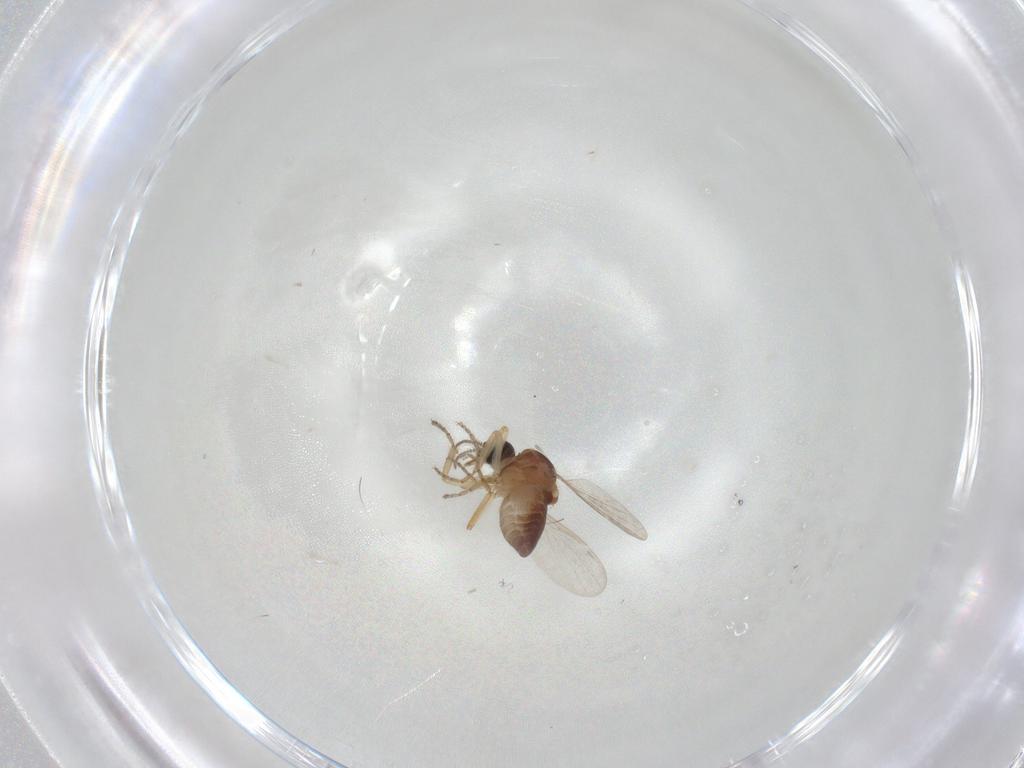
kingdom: Animalia
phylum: Arthropoda
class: Insecta
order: Diptera
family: Ceratopogonidae
